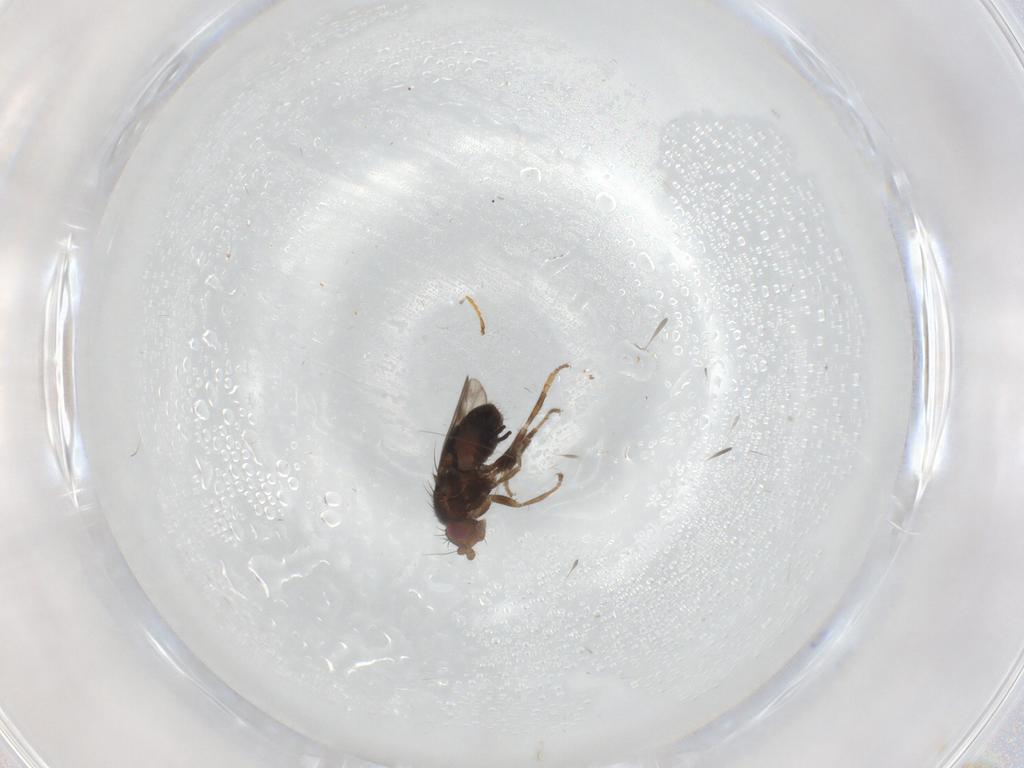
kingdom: Animalia
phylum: Arthropoda
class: Insecta
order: Diptera
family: Sphaeroceridae
